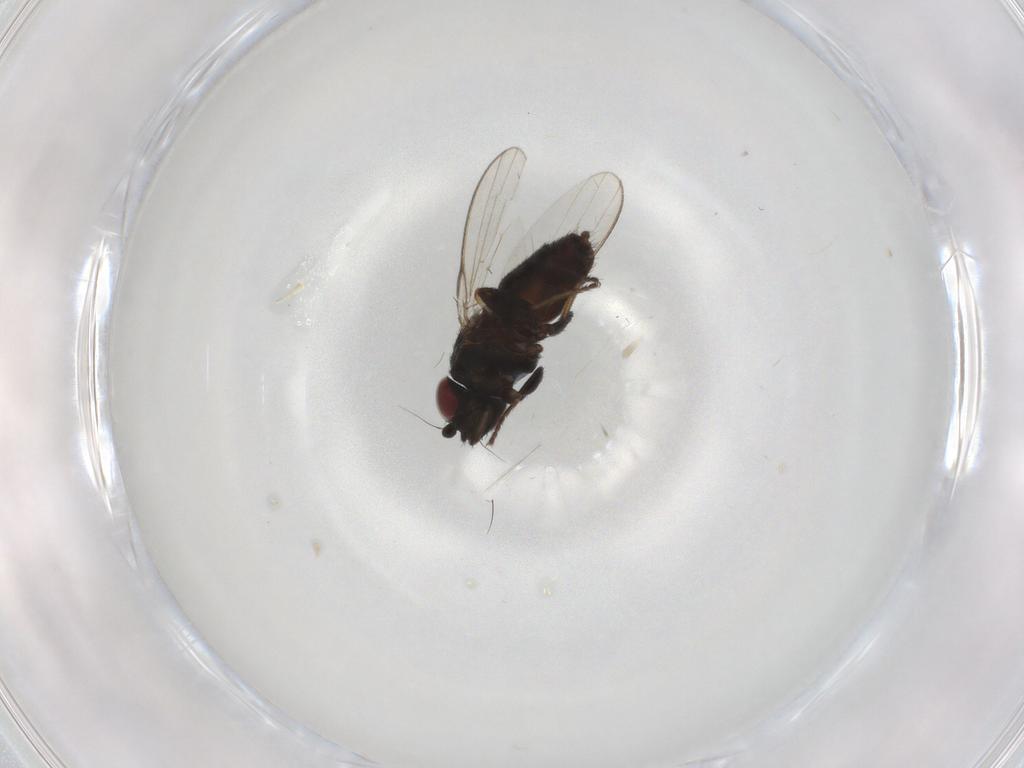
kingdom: Animalia
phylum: Arthropoda
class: Insecta
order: Diptera
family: Milichiidae
